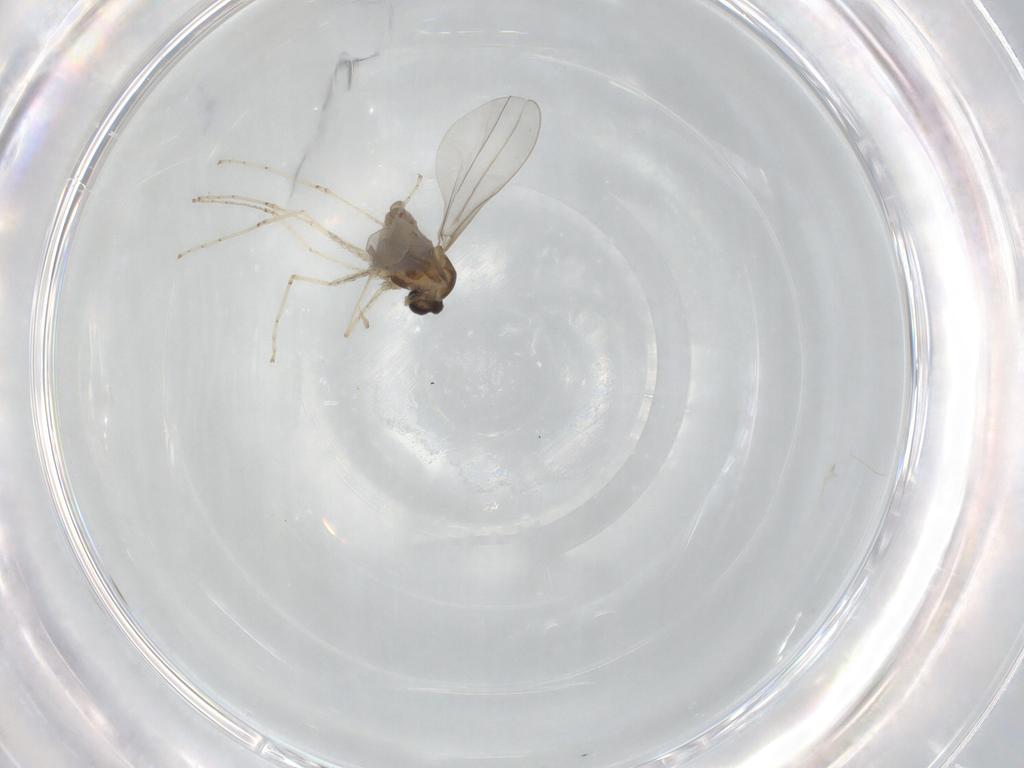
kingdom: Animalia
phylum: Arthropoda
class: Insecta
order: Diptera
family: Cecidomyiidae
